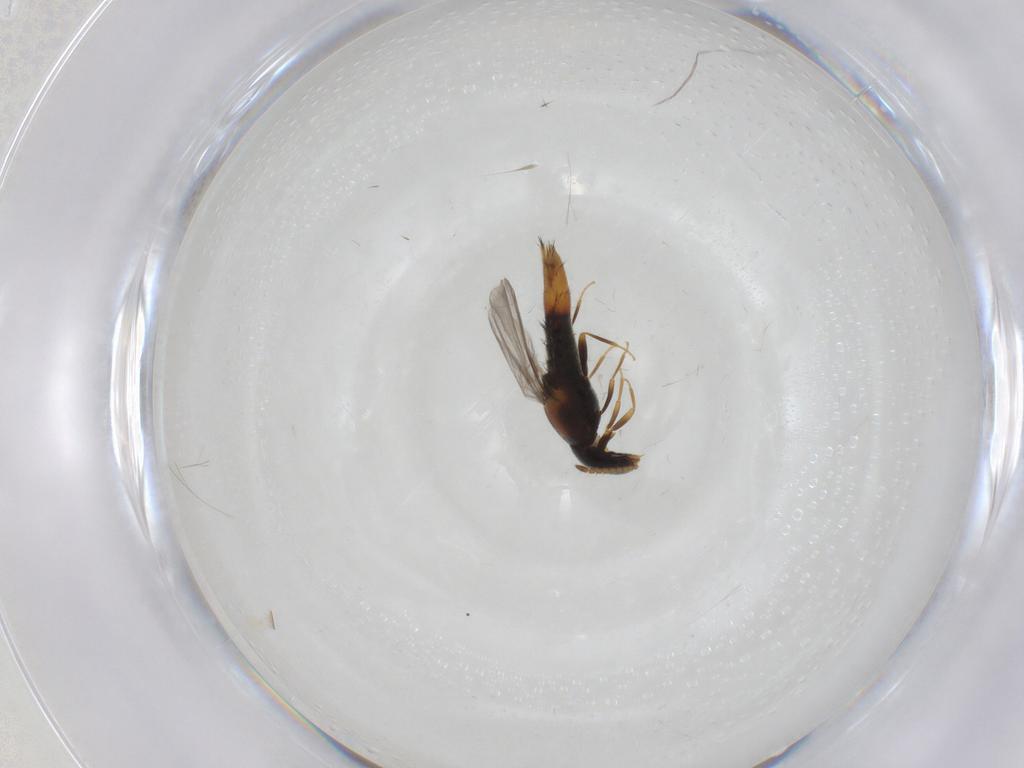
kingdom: Animalia
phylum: Arthropoda
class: Insecta
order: Coleoptera
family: Staphylinidae
